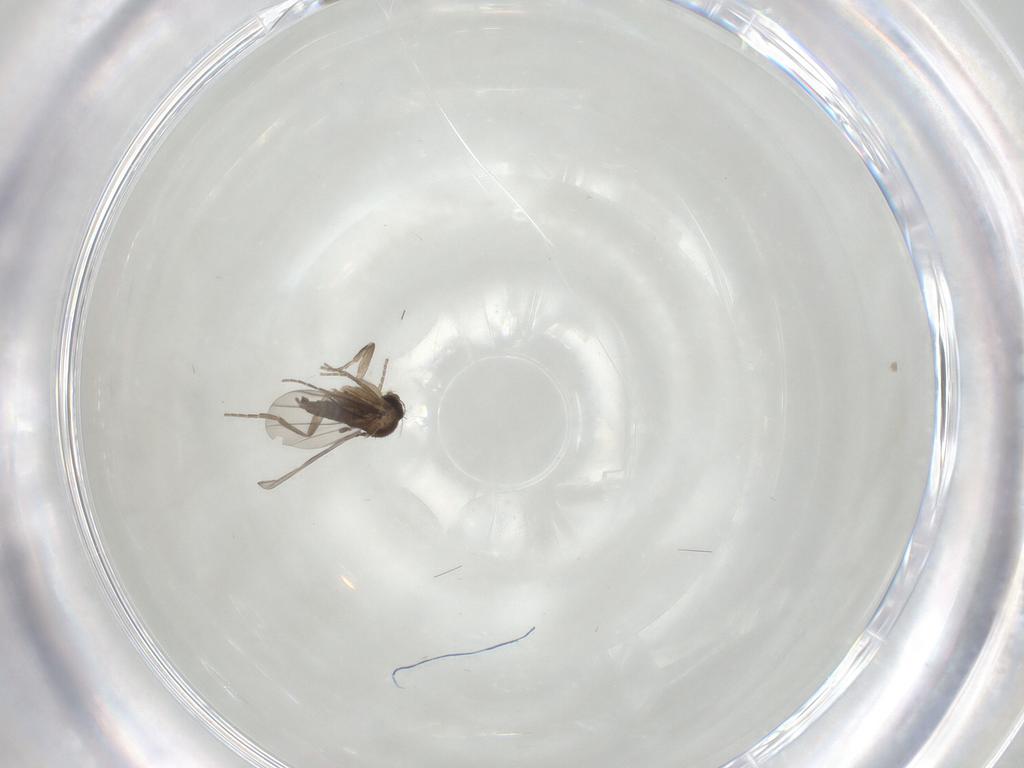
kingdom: Animalia
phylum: Arthropoda
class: Insecta
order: Diptera
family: Phoridae
